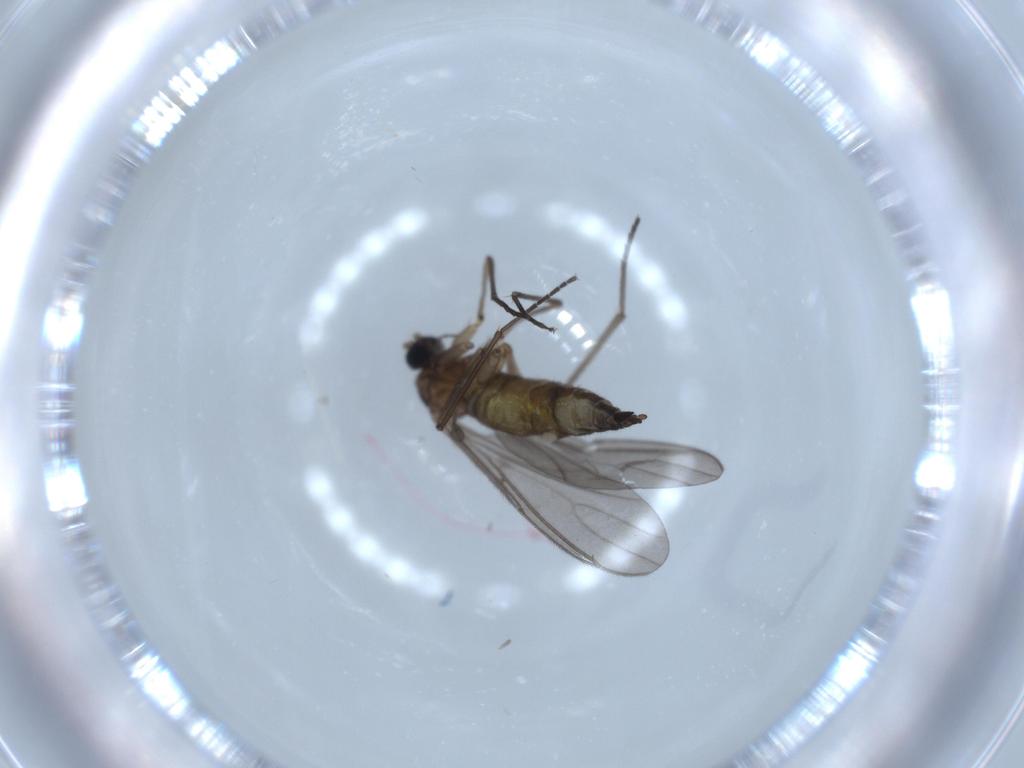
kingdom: Animalia
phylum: Arthropoda
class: Insecta
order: Diptera
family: Sciaridae
